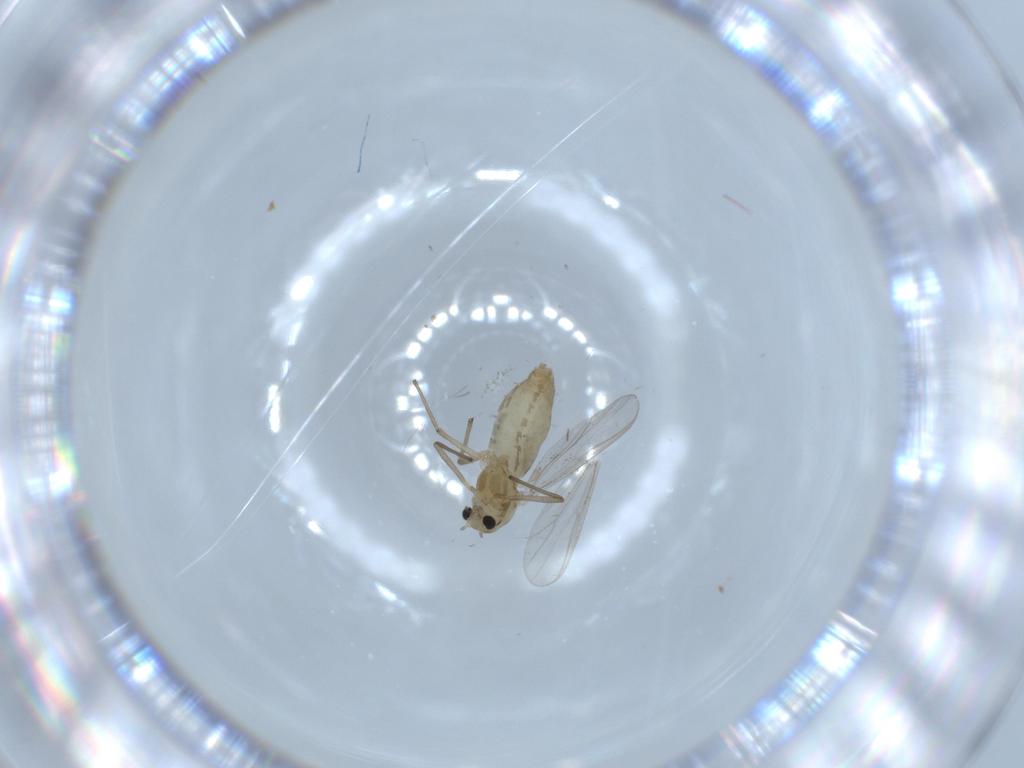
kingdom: Animalia
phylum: Arthropoda
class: Insecta
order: Diptera
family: Chironomidae
